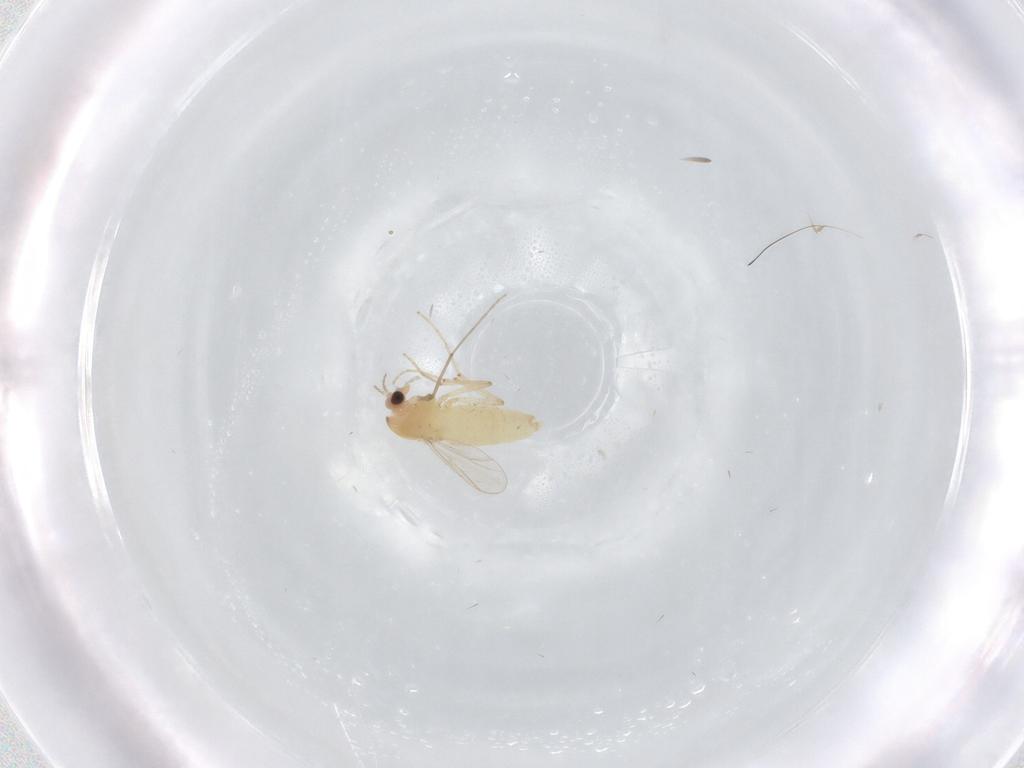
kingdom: Animalia
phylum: Arthropoda
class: Insecta
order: Diptera
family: Chironomidae
